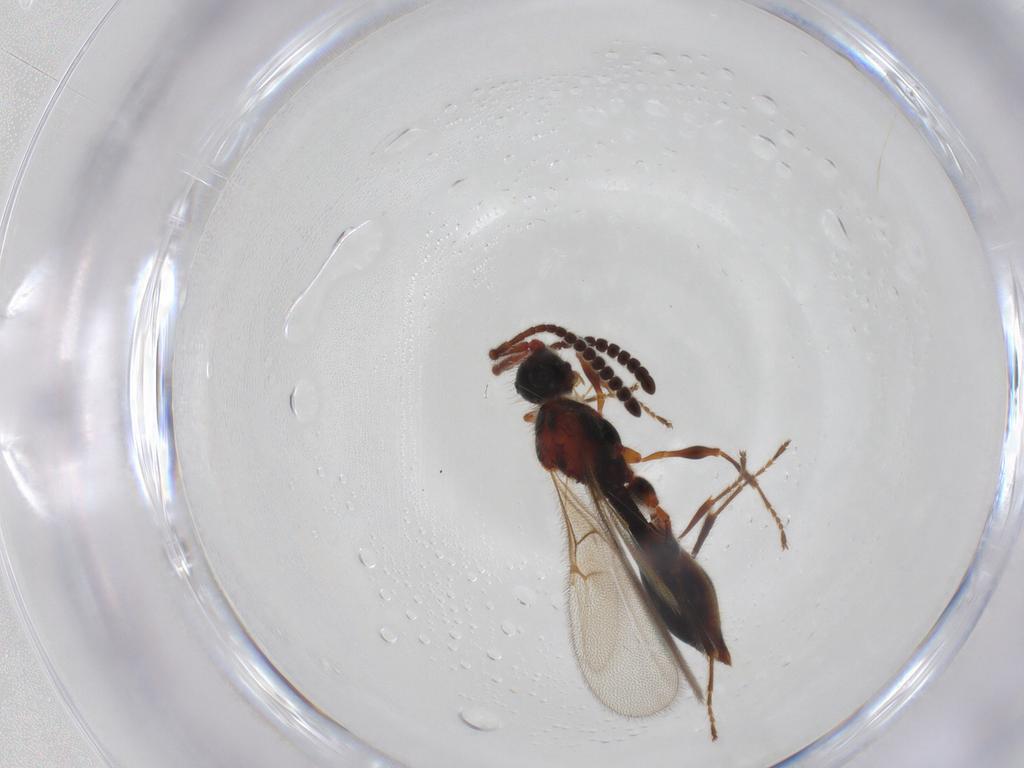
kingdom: Animalia
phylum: Arthropoda
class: Insecta
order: Hymenoptera
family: Diapriidae
